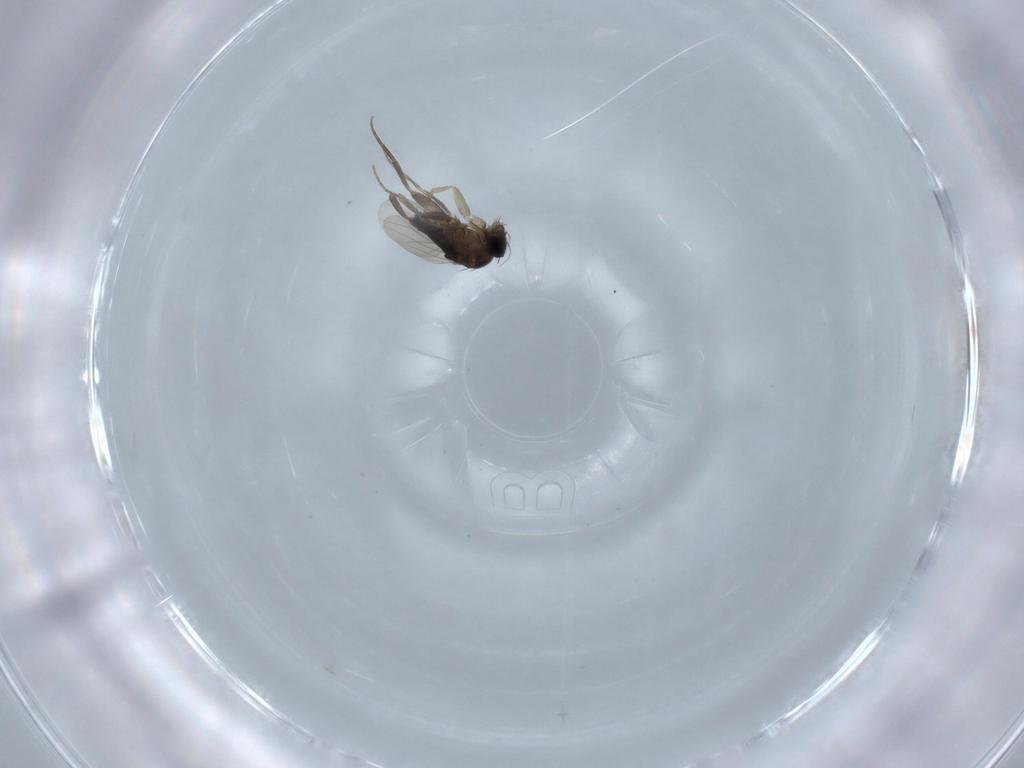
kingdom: Animalia
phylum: Arthropoda
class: Insecta
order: Diptera
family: Phoridae
